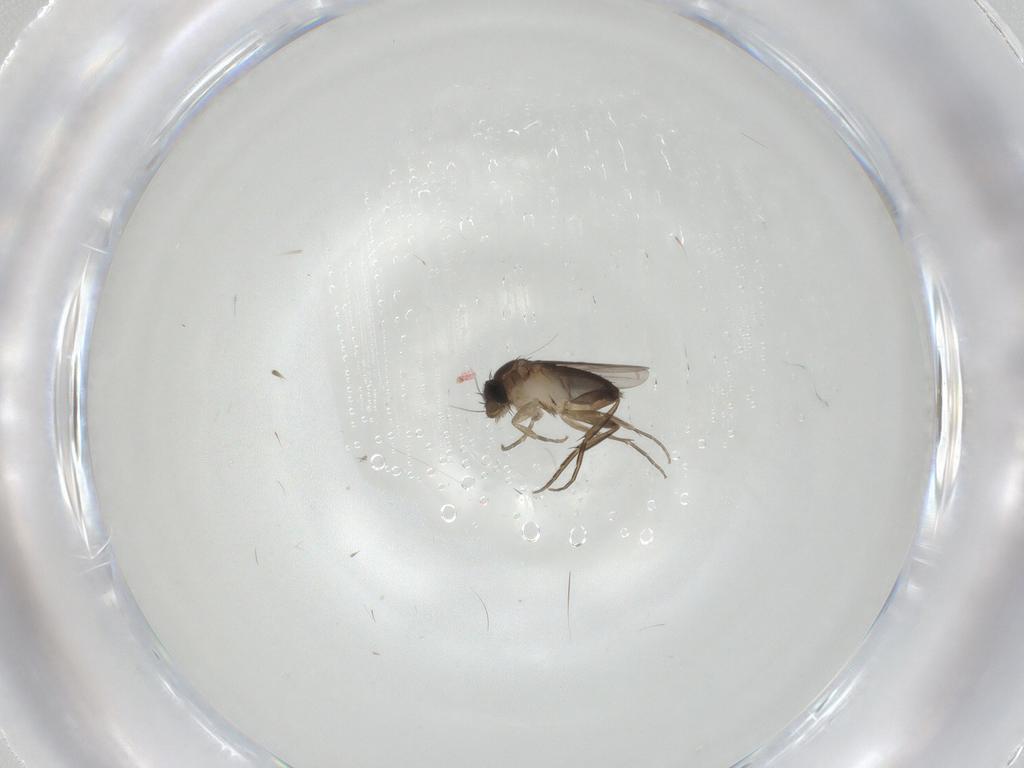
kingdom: Animalia
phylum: Arthropoda
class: Insecta
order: Diptera
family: Phoridae
